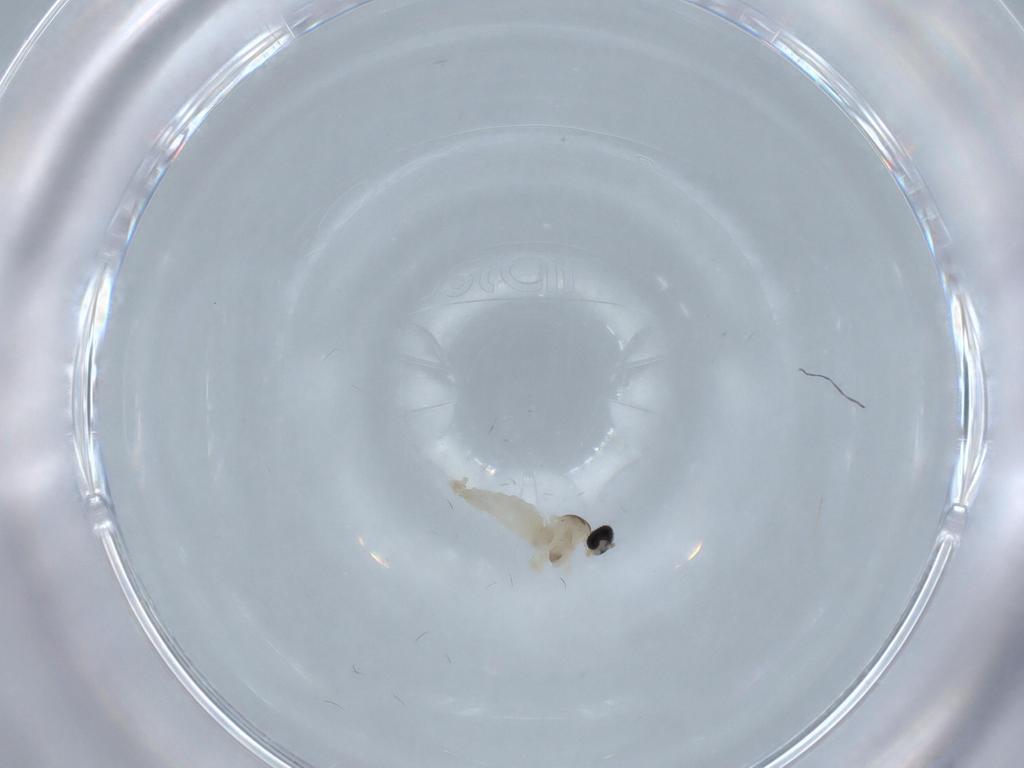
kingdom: Animalia
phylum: Arthropoda
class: Insecta
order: Diptera
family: Cecidomyiidae
